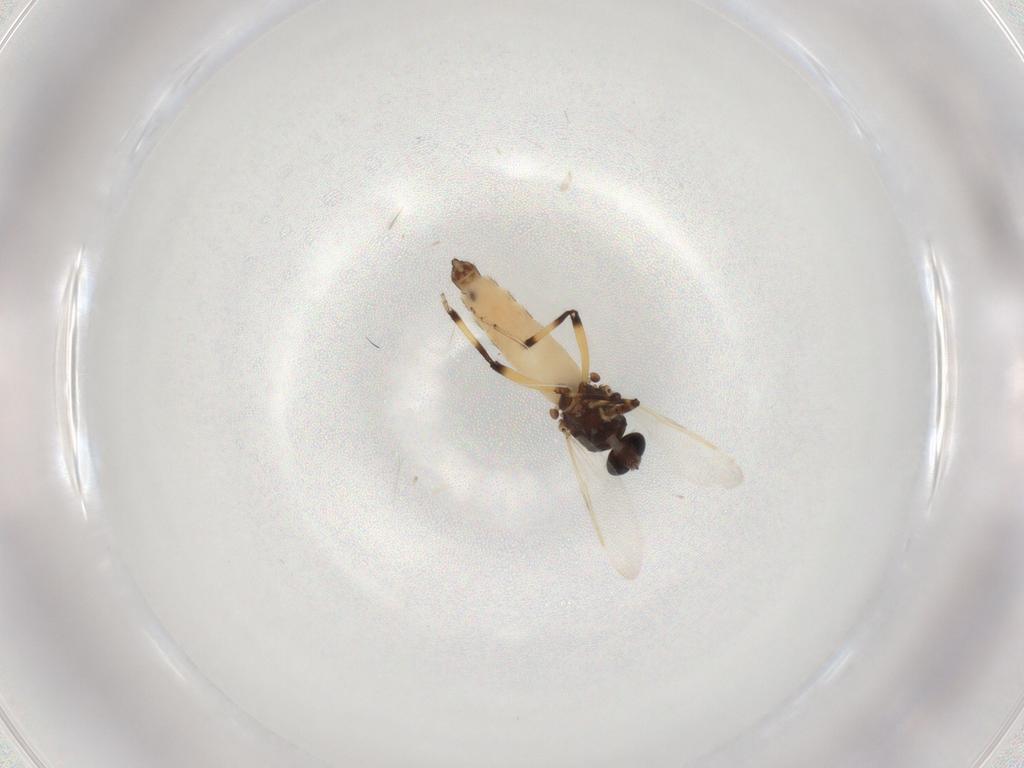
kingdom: Animalia
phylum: Arthropoda
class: Insecta
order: Diptera
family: Ceratopogonidae
